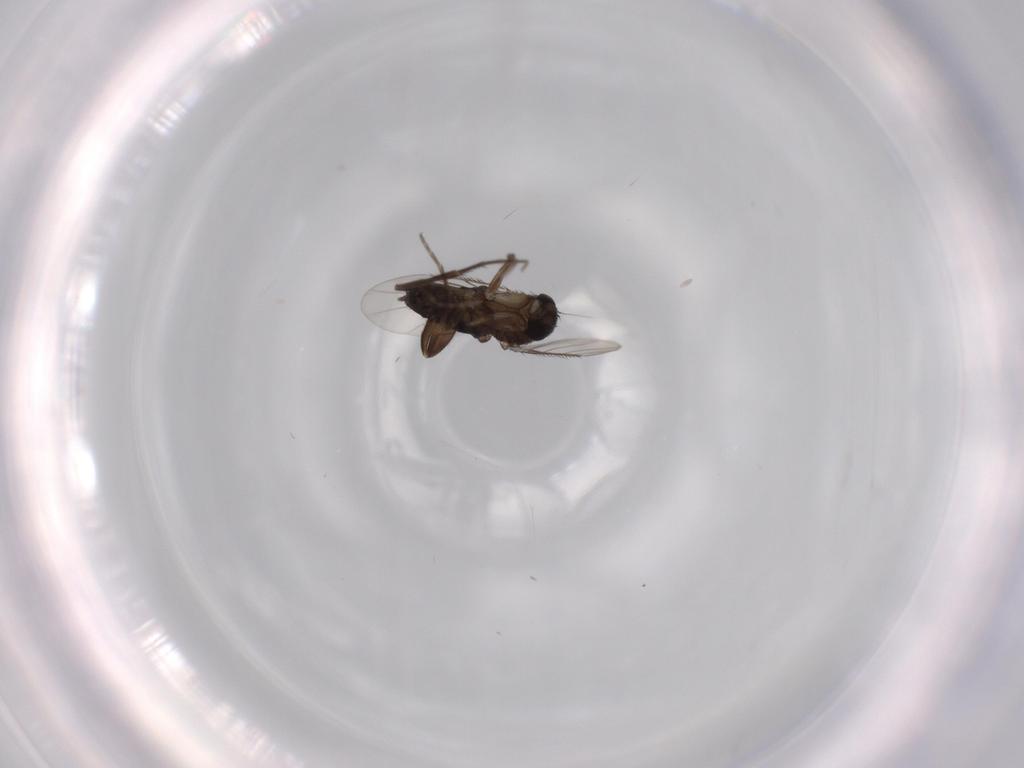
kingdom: Animalia
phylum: Arthropoda
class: Insecta
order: Diptera
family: Phoridae
